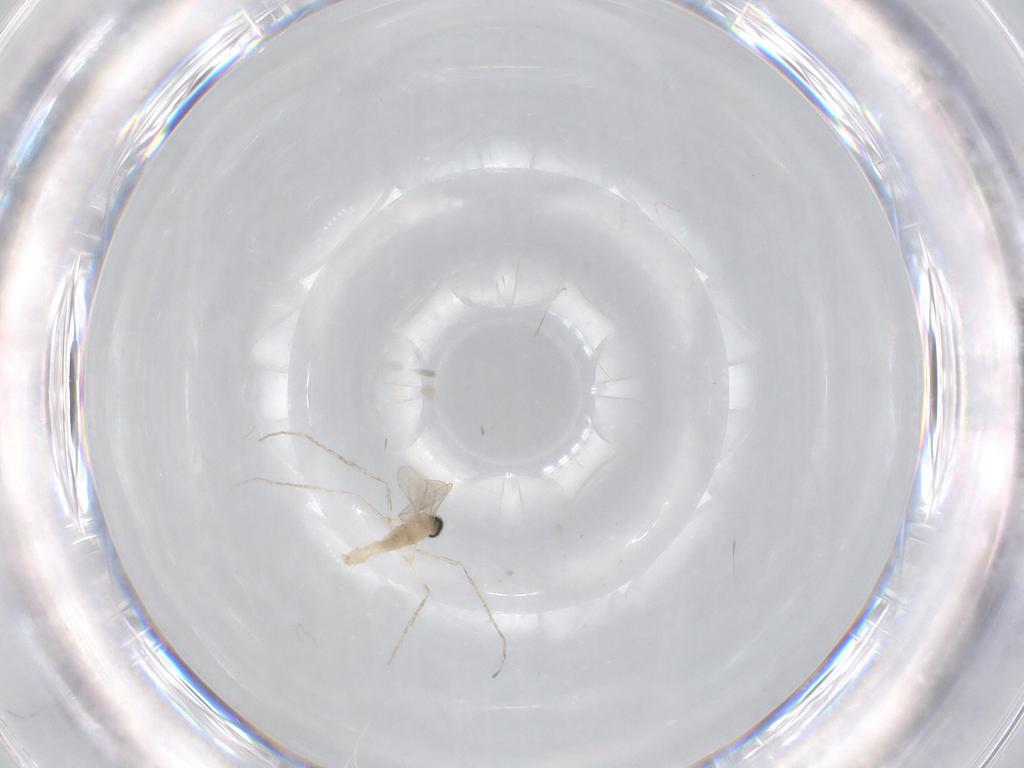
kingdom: Animalia
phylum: Arthropoda
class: Insecta
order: Diptera
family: Cecidomyiidae
